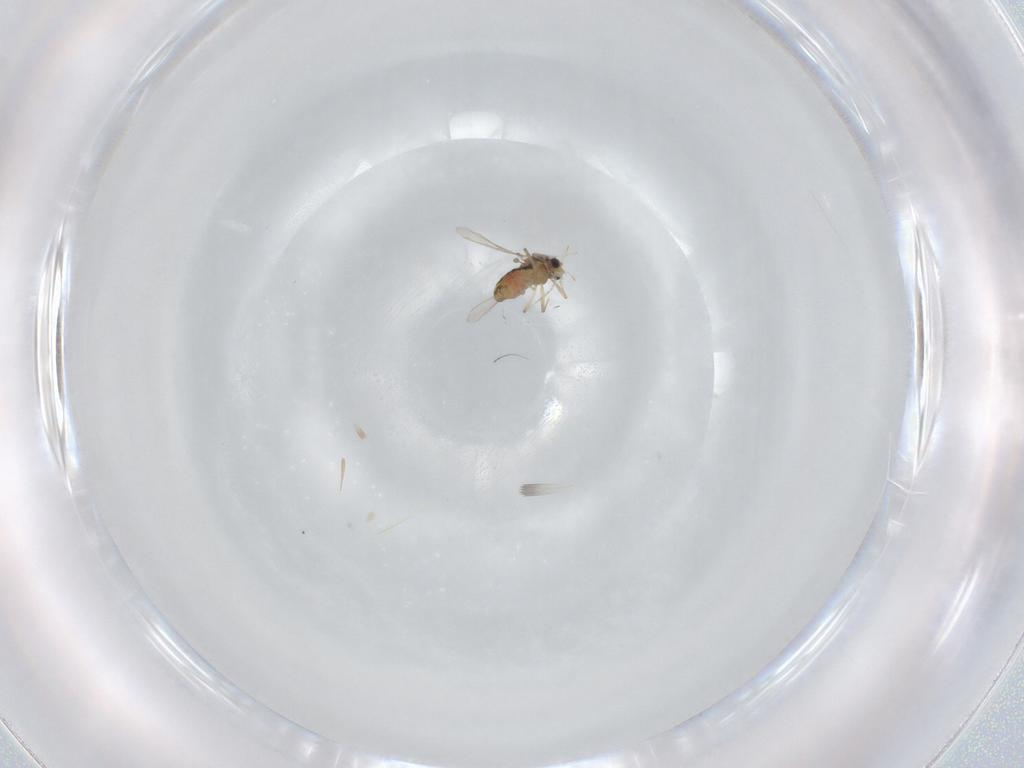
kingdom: Animalia
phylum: Arthropoda
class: Insecta
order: Diptera
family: Chironomidae
